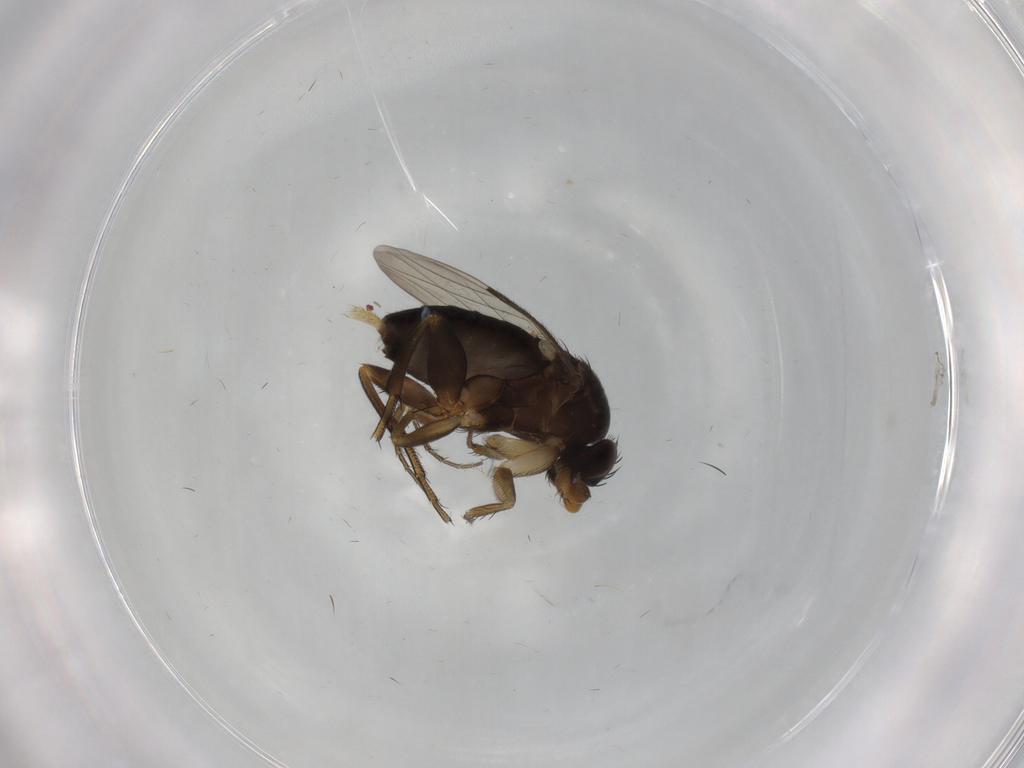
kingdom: Animalia
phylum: Arthropoda
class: Insecta
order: Diptera
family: Psychodidae
